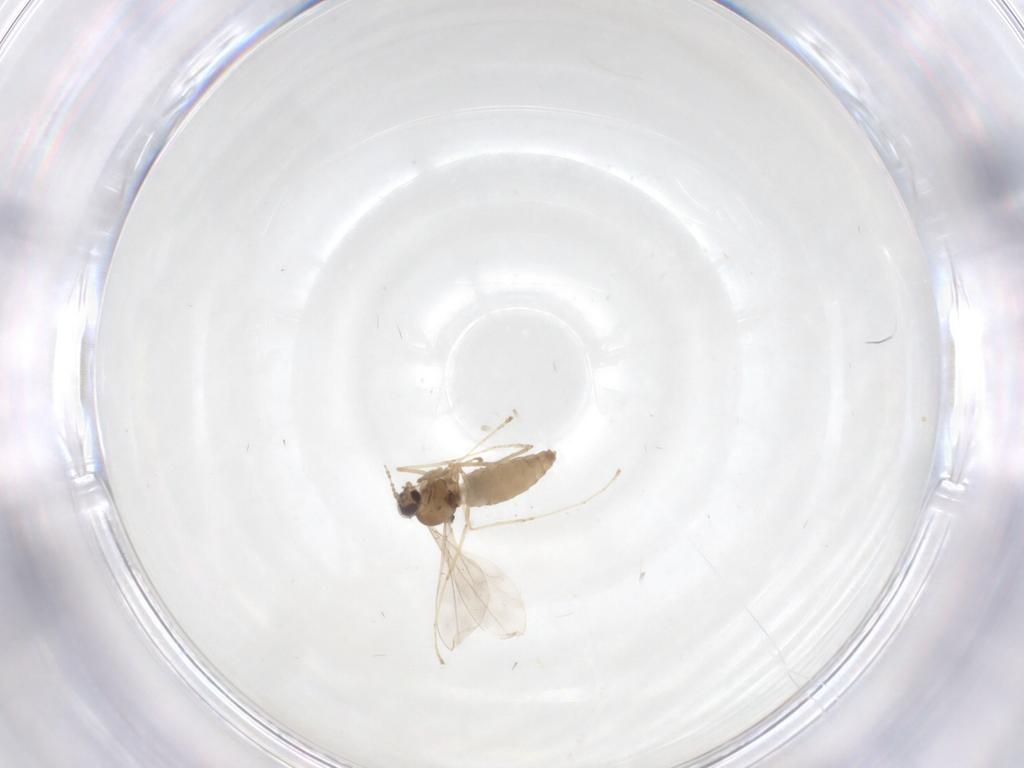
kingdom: Animalia
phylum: Arthropoda
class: Insecta
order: Diptera
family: Cecidomyiidae
